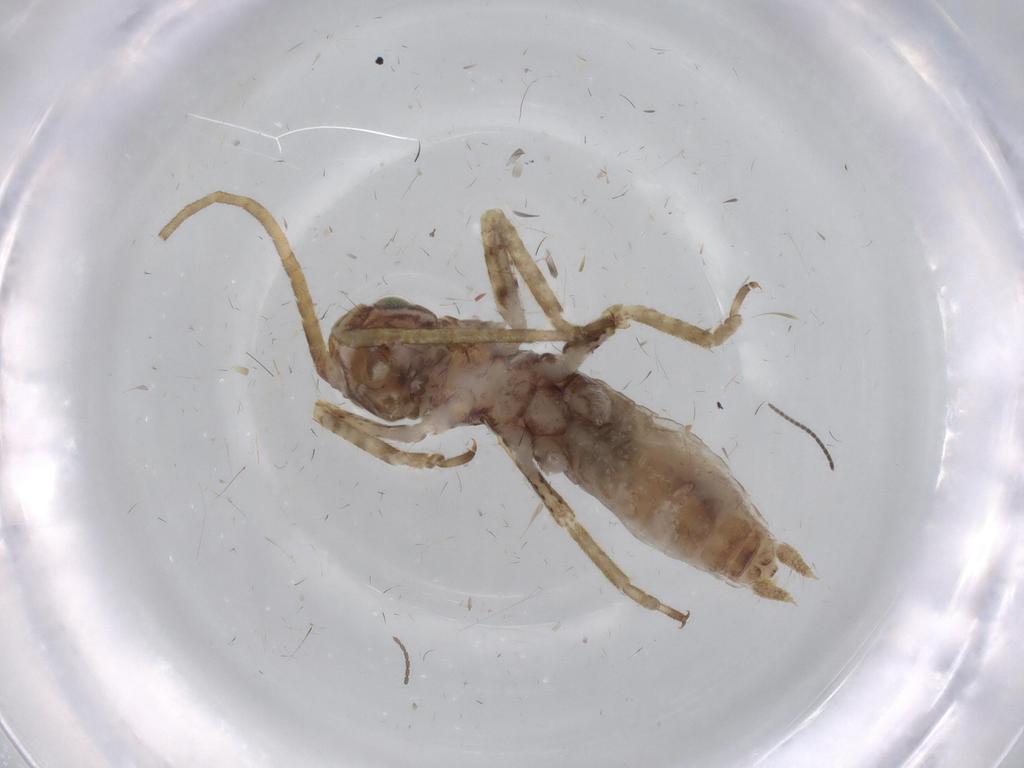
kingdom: Animalia
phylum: Arthropoda
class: Insecta
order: Orthoptera
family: Gryllidae
